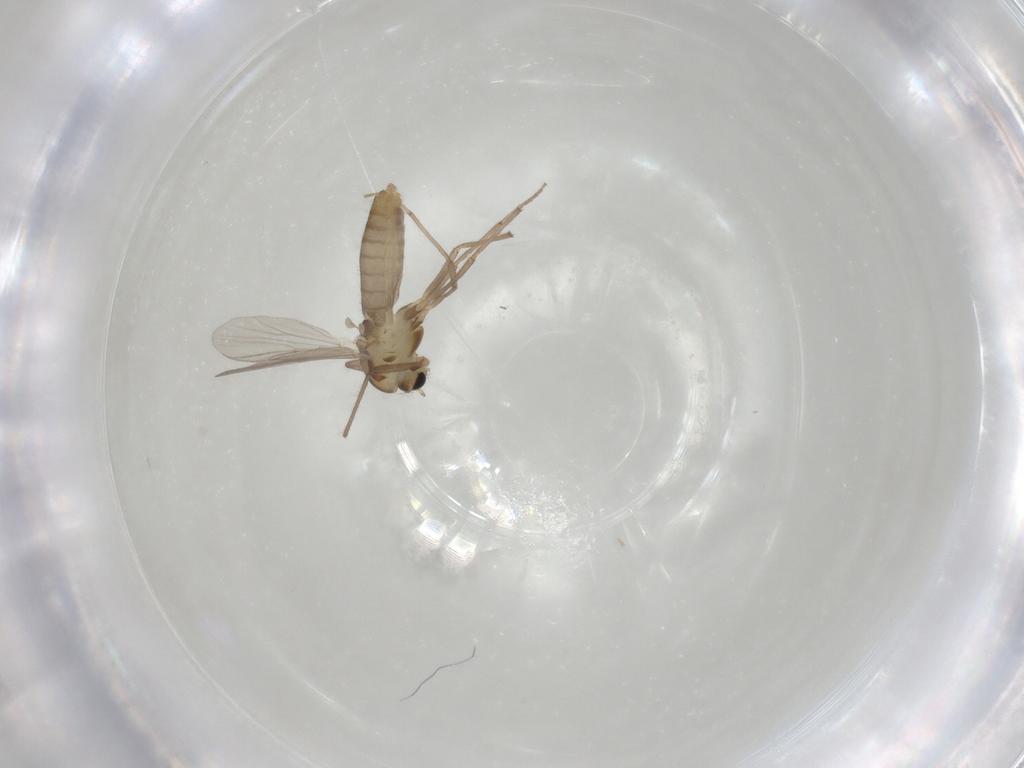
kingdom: Animalia
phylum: Arthropoda
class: Insecta
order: Diptera
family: Chironomidae
